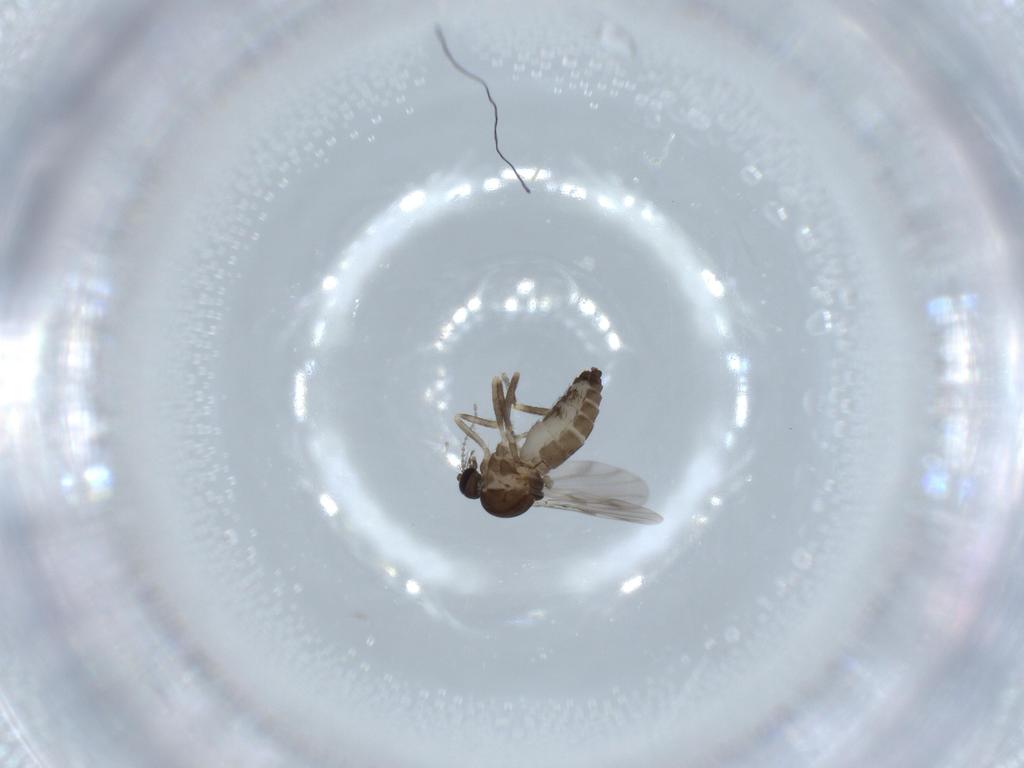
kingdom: Animalia
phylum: Arthropoda
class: Insecta
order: Diptera
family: Ceratopogonidae
